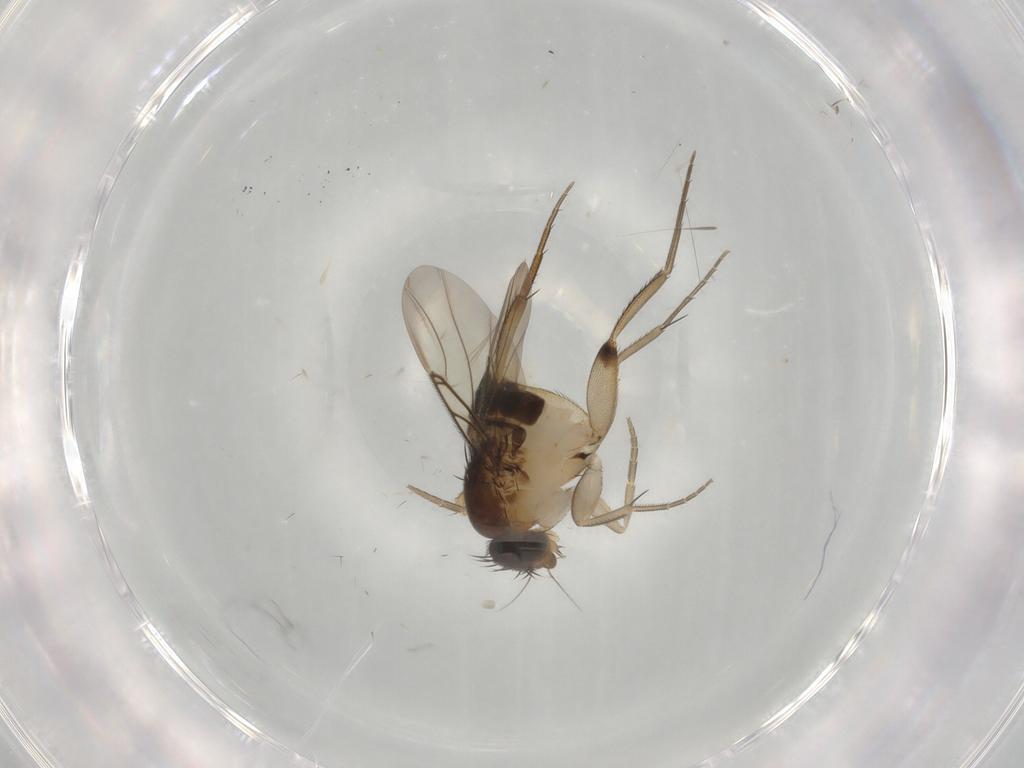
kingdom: Animalia
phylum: Arthropoda
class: Insecta
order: Diptera
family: Phoridae
